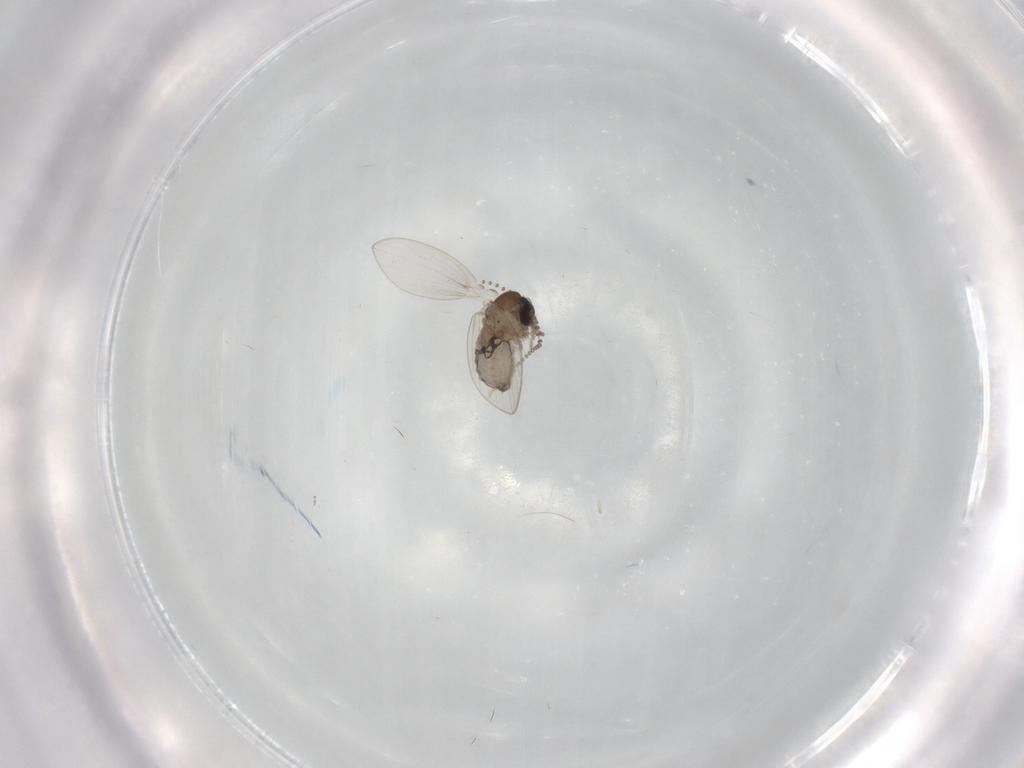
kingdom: Animalia
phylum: Arthropoda
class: Insecta
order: Diptera
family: Psychodidae
